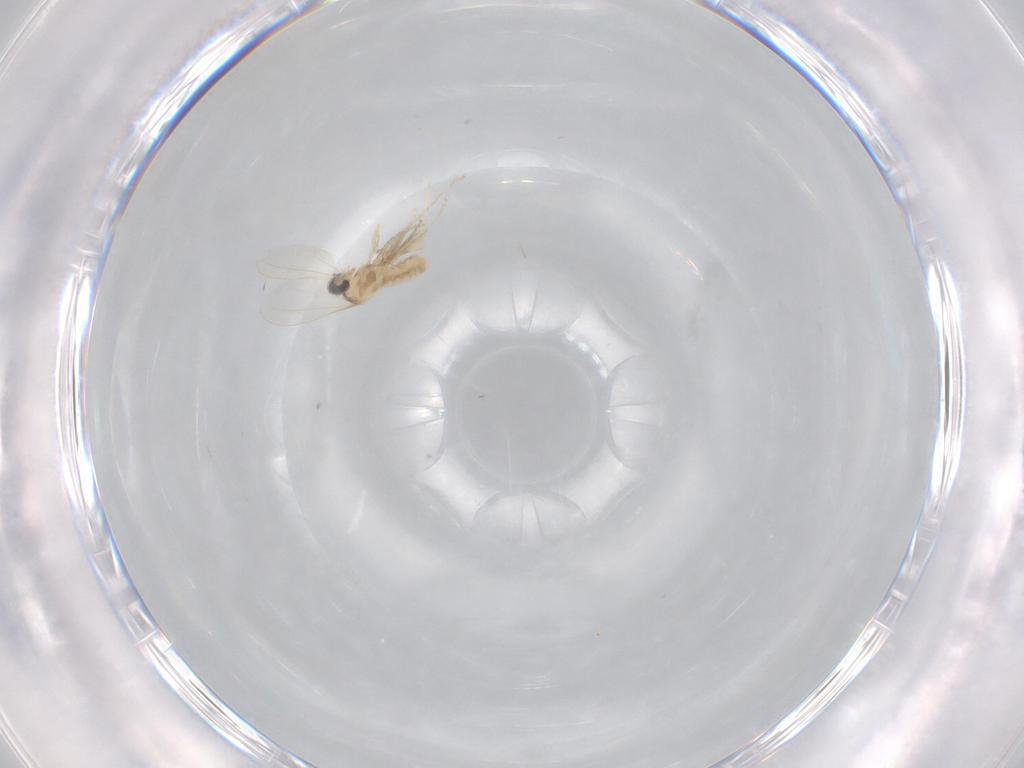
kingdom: Animalia
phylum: Arthropoda
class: Insecta
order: Diptera
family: Cecidomyiidae
